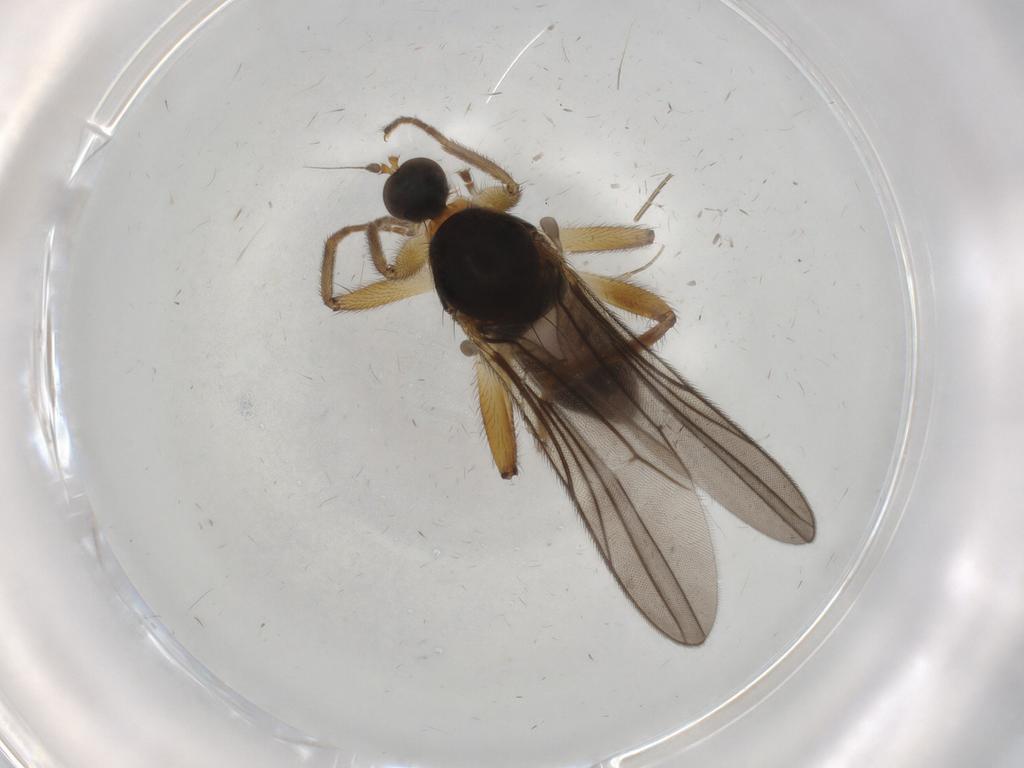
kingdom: Animalia
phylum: Arthropoda
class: Insecta
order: Diptera
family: Hybotidae
